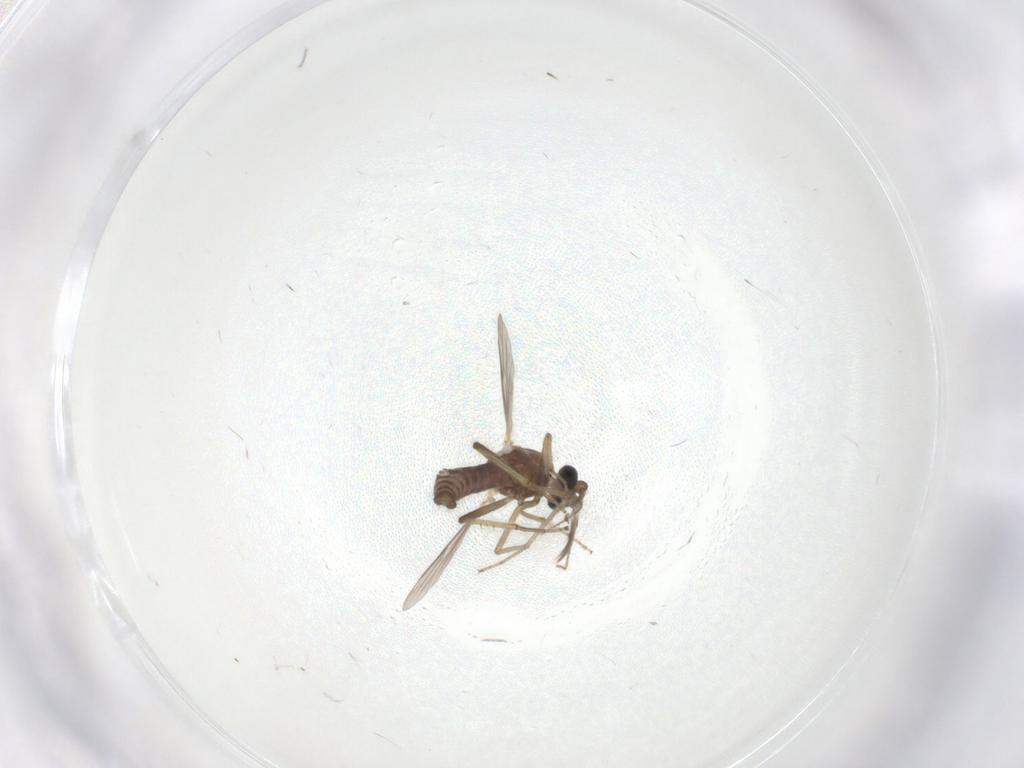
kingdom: Animalia
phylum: Arthropoda
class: Insecta
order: Diptera
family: Ceratopogonidae
